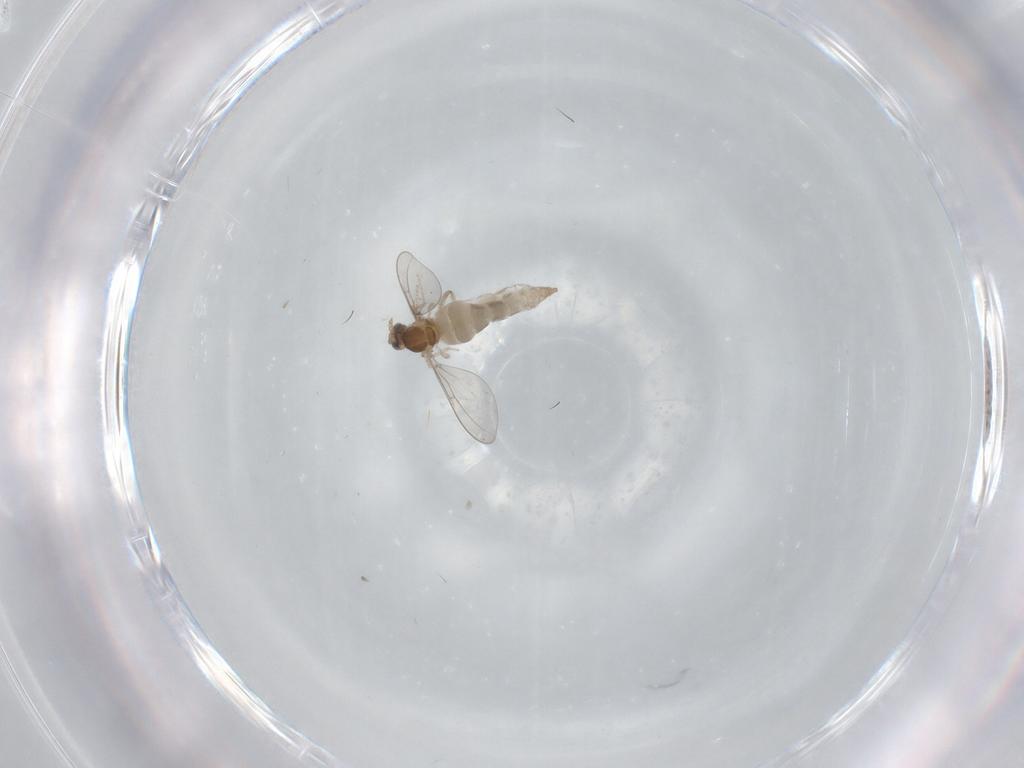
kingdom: Animalia
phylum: Arthropoda
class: Insecta
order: Diptera
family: Cecidomyiidae
